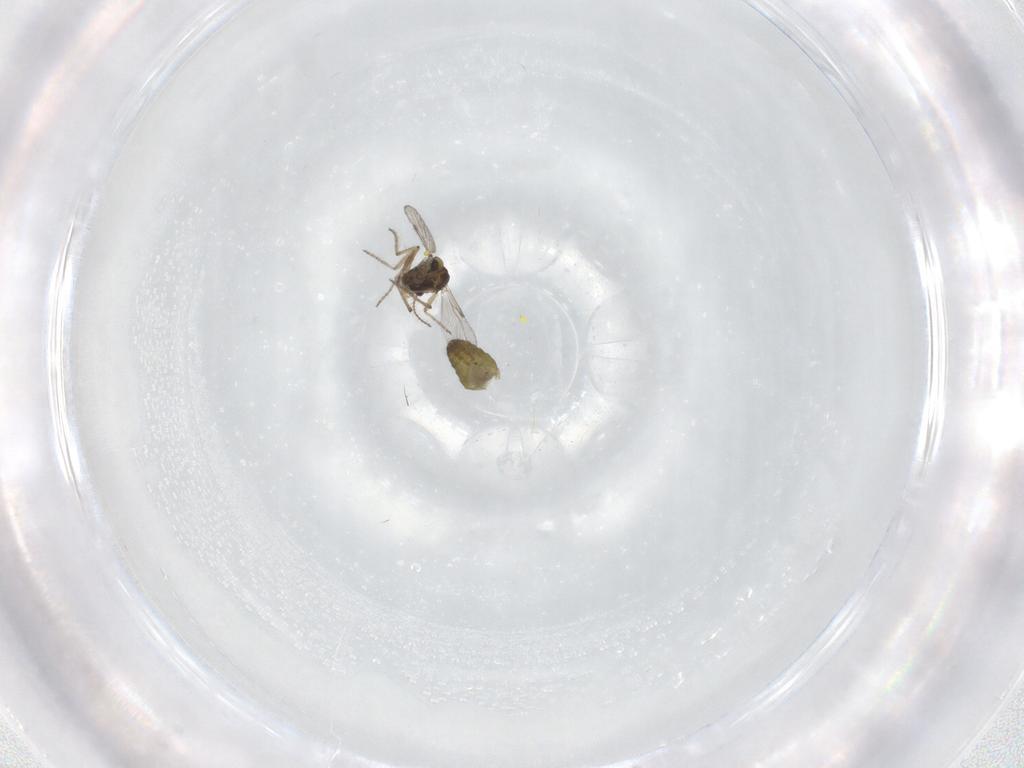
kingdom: Animalia
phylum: Arthropoda
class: Insecta
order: Diptera
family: Ceratopogonidae
